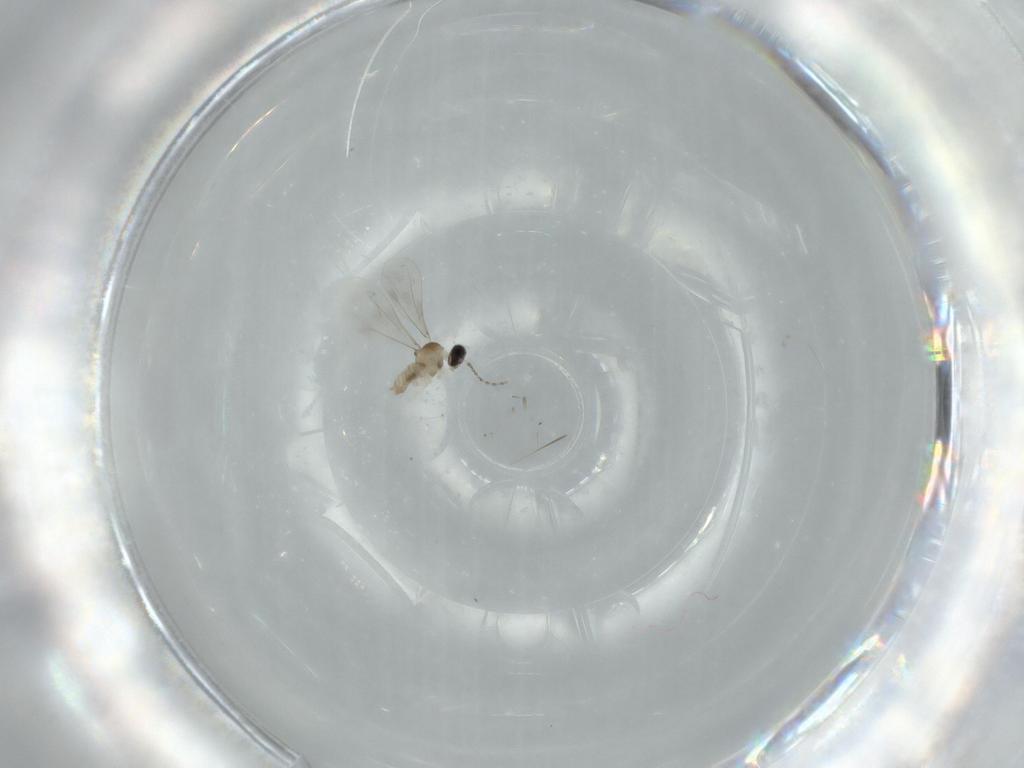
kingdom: Animalia
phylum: Arthropoda
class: Insecta
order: Diptera
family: Cecidomyiidae
